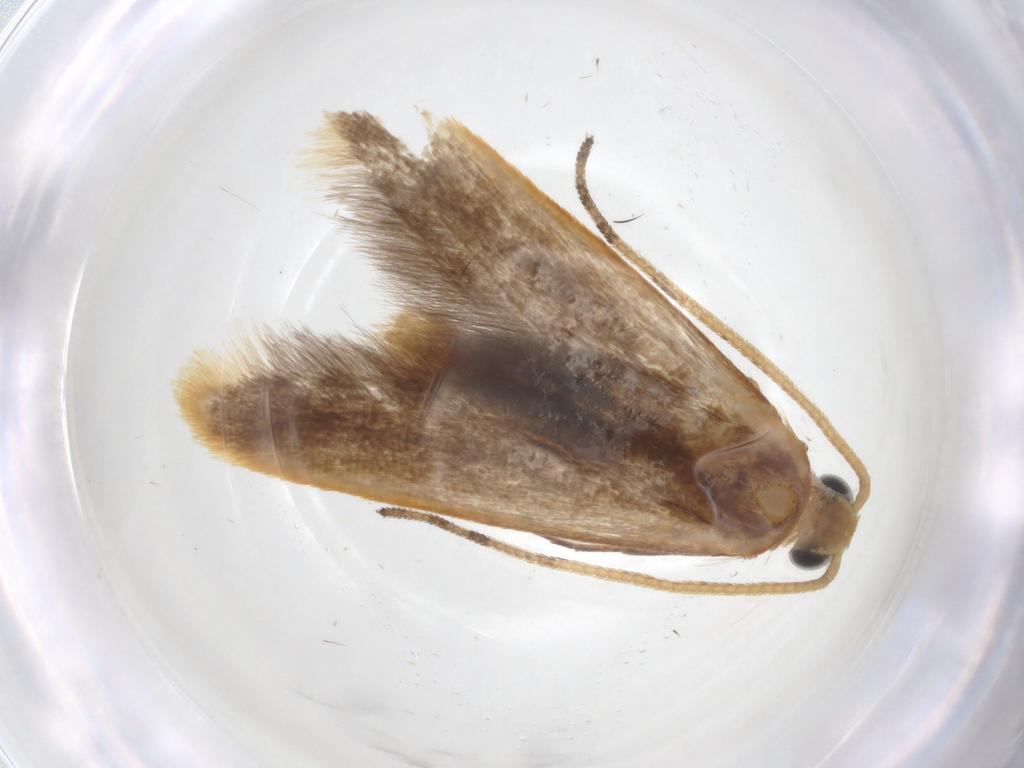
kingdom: Animalia
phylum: Arthropoda
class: Insecta
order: Lepidoptera
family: Elachistidae
